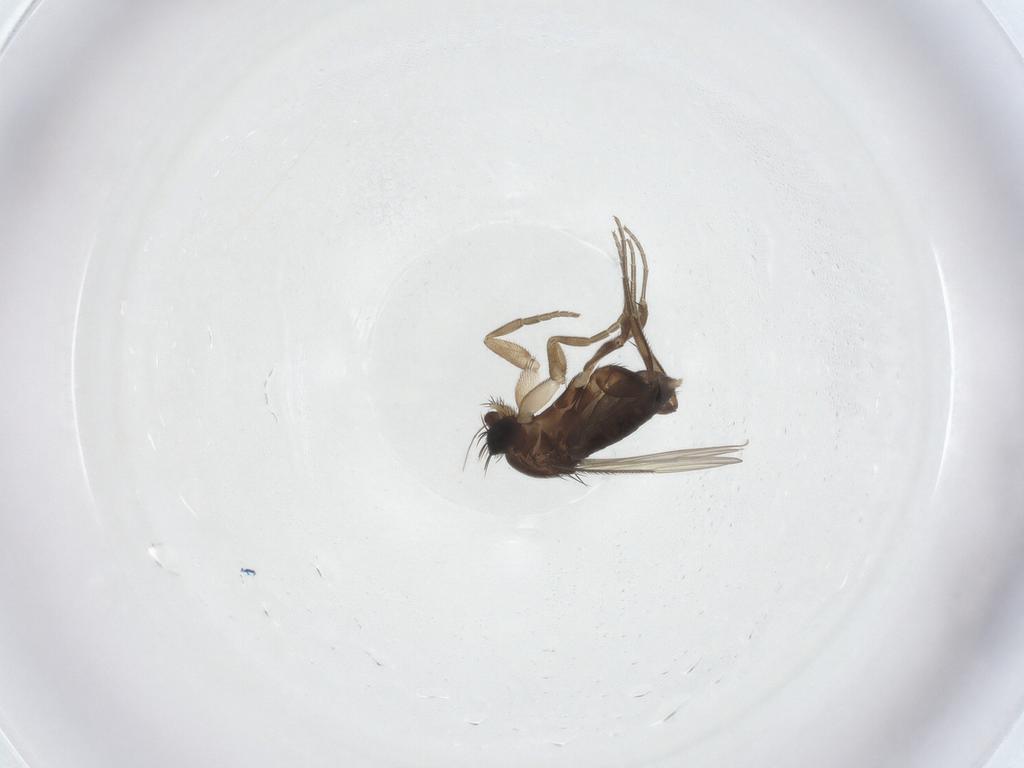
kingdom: Animalia
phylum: Arthropoda
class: Insecta
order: Diptera
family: Phoridae
